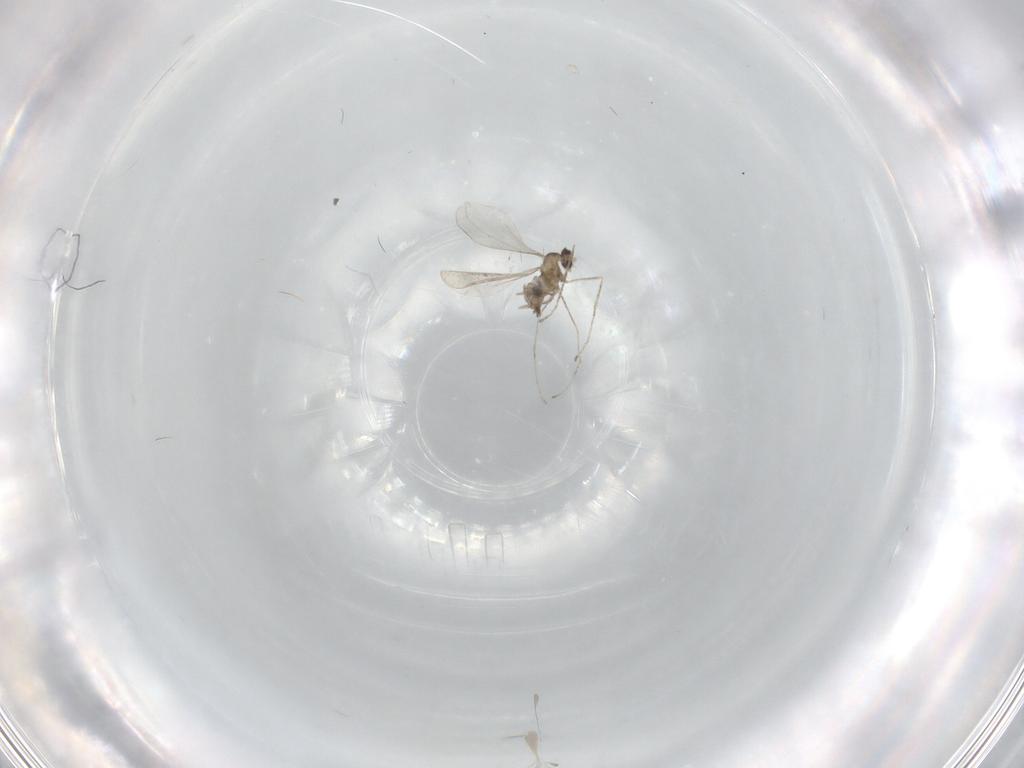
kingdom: Animalia
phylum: Arthropoda
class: Insecta
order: Diptera
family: Cecidomyiidae
